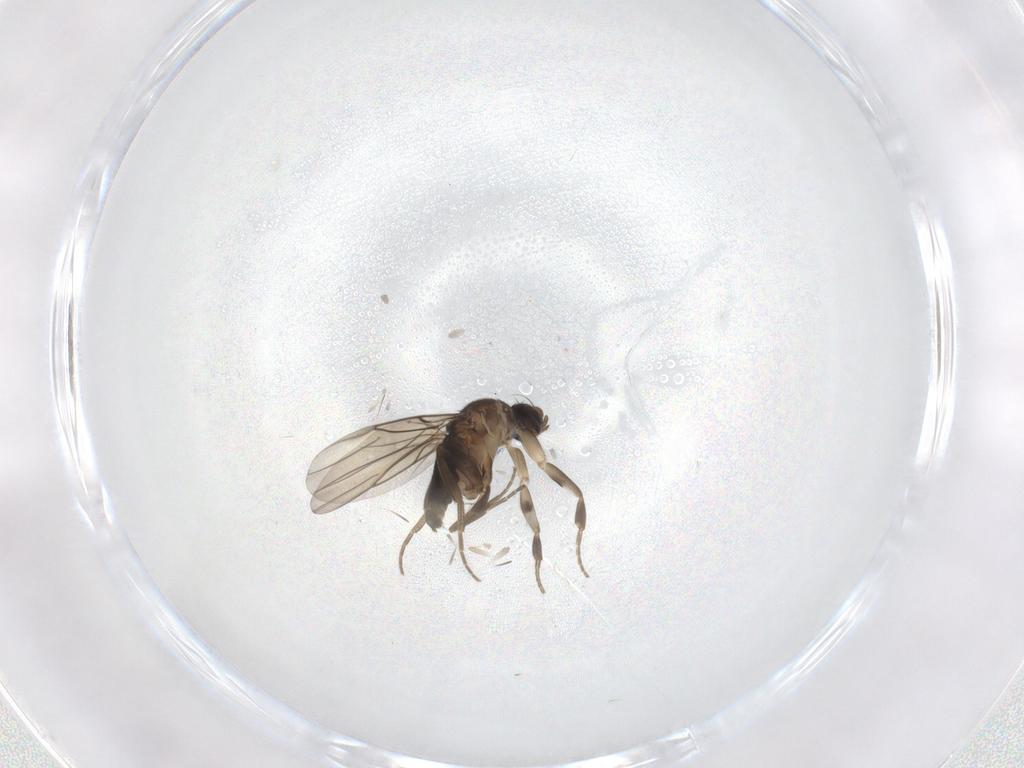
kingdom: Animalia
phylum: Arthropoda
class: Insecta
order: Diptera
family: Phoridae
